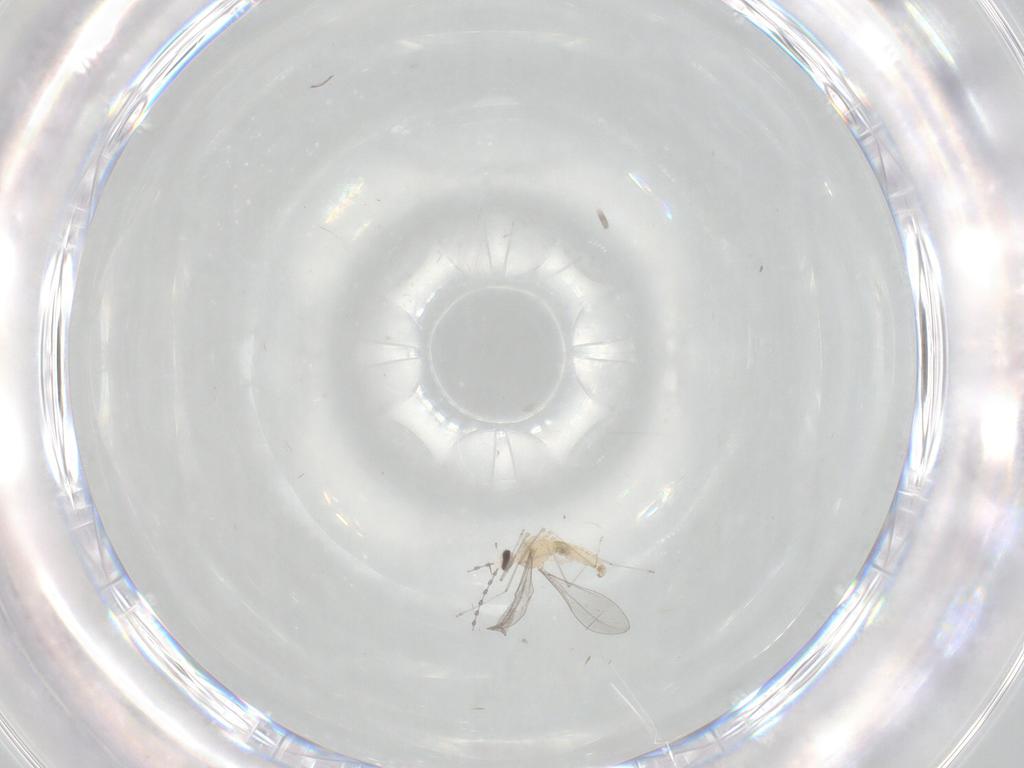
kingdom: Animalia
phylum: Arthropoda
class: Insecta
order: Diptera
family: Cecidomyiidae
